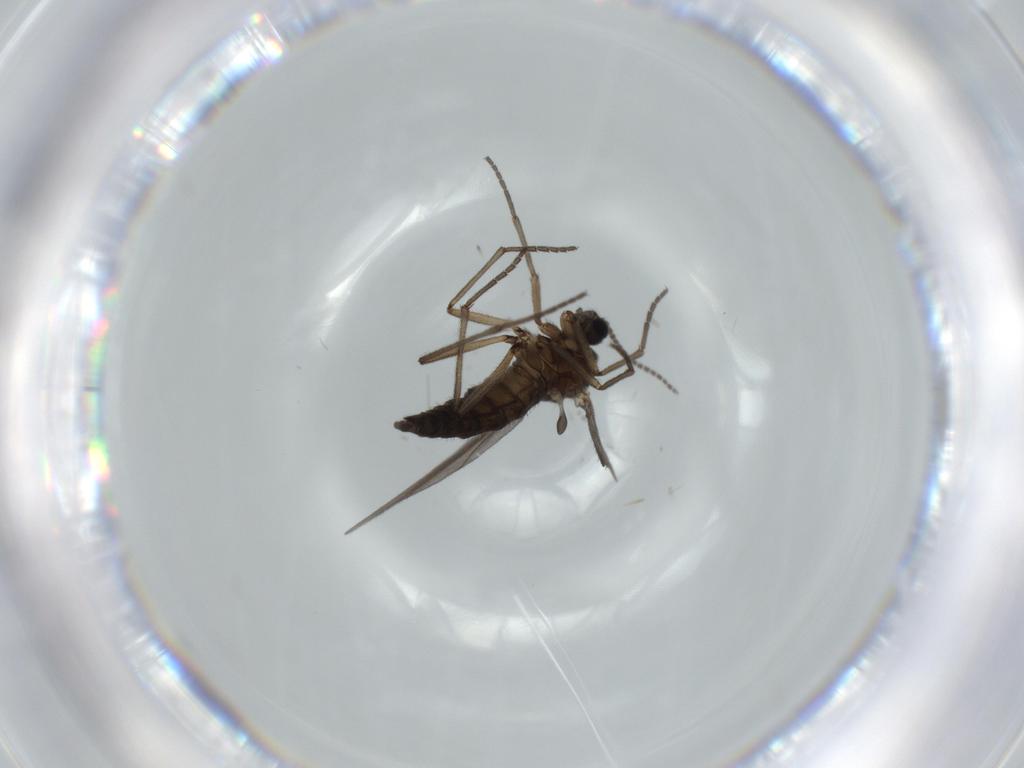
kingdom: Animalia
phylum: Arthropoda
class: Insecta
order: Diptera
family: Sciaridae
